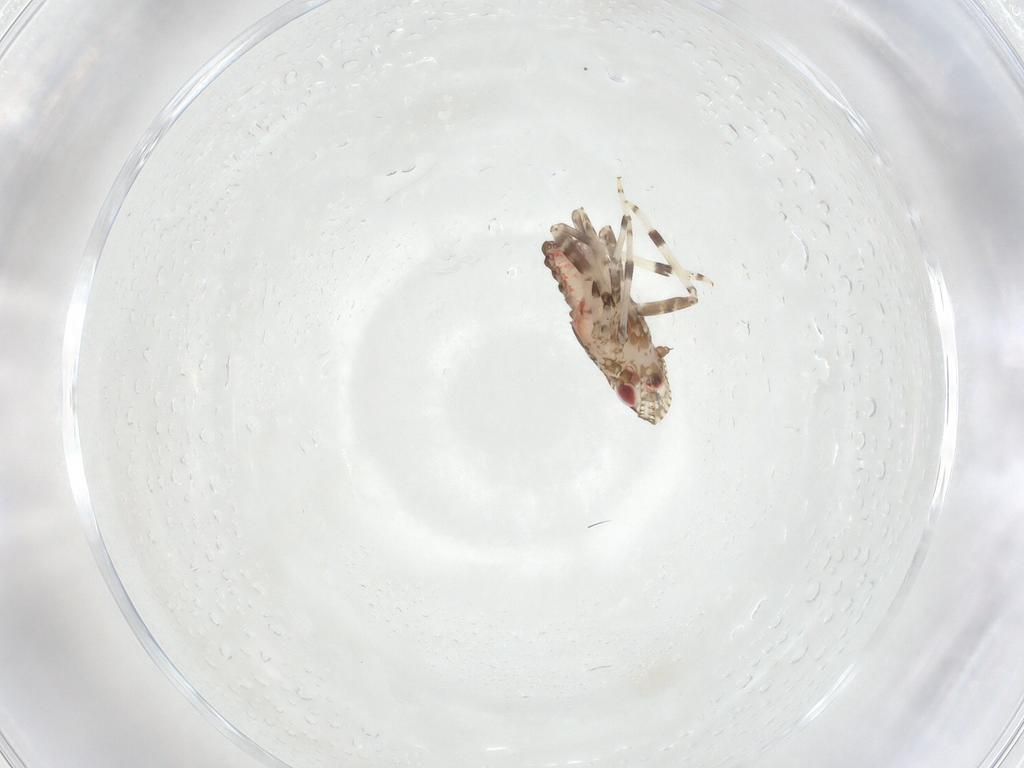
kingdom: Animalia
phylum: Arthropoda
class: Insecta
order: Hemiptera
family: Dictyopharidae
